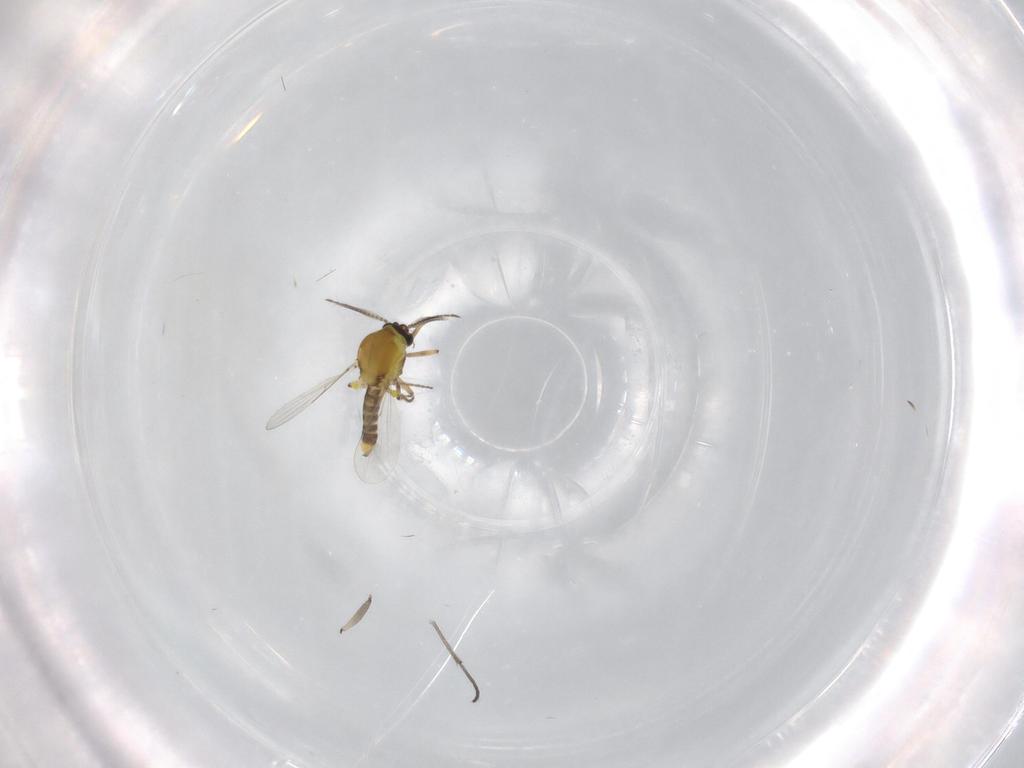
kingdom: Animalia
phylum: Arthropoda
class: Insecta
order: Diptera
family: Ceratopogonidae
